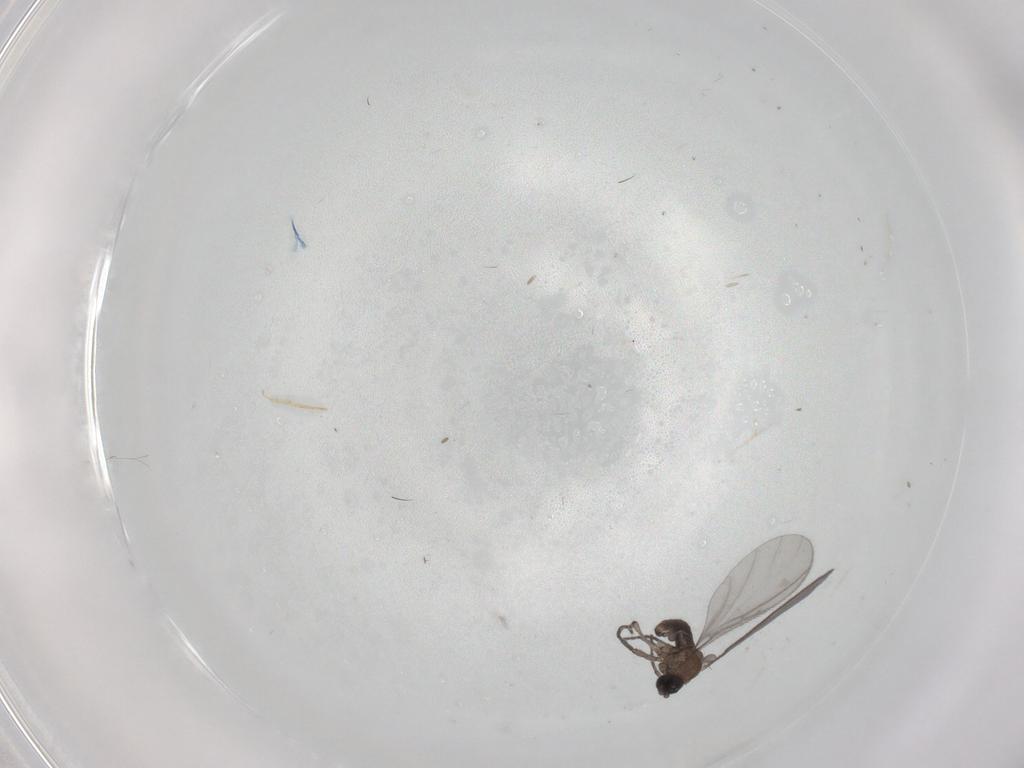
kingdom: Animalia
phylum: Arthropoda
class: Insecta
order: Diptera
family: Sciaridae
